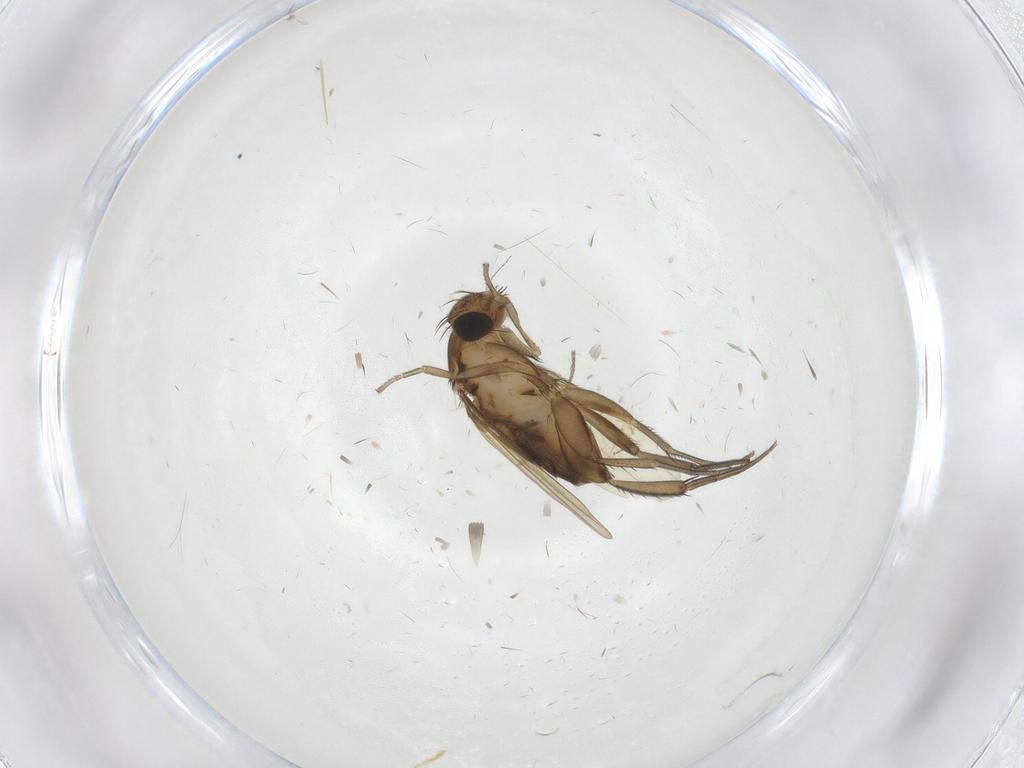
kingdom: Animalia
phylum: Arthropoda
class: Insecta
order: Diptera
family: Phoridae
